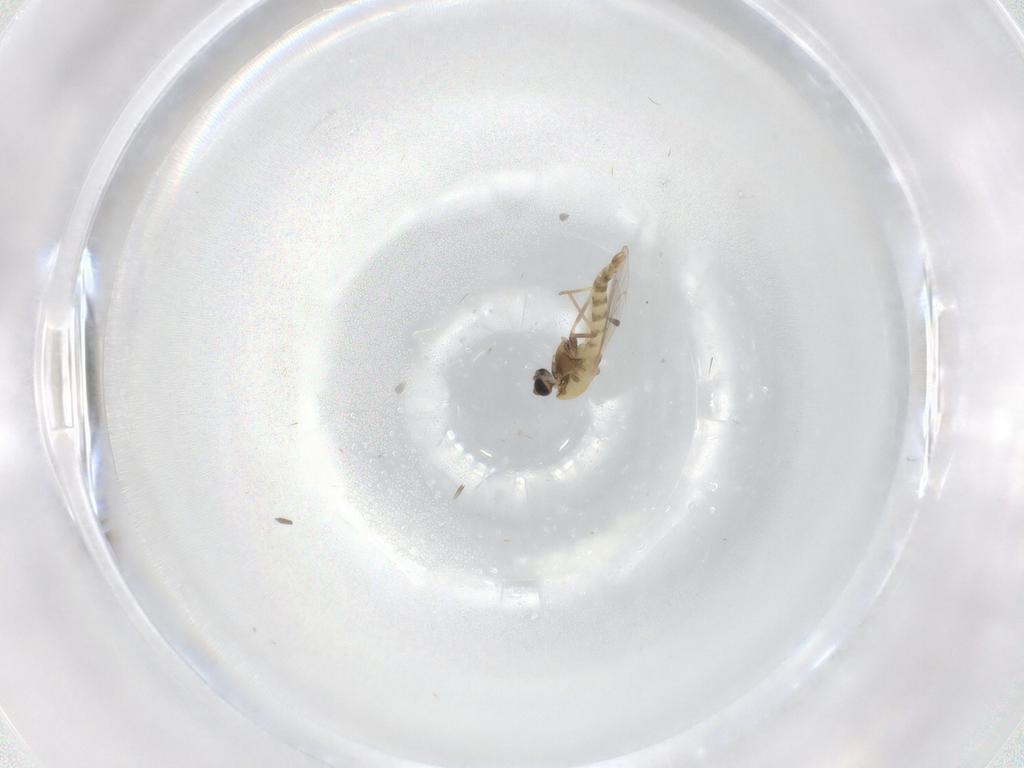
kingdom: Animalia
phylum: Arthropoda
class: Insecta
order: Diptera
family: Chironomidae
